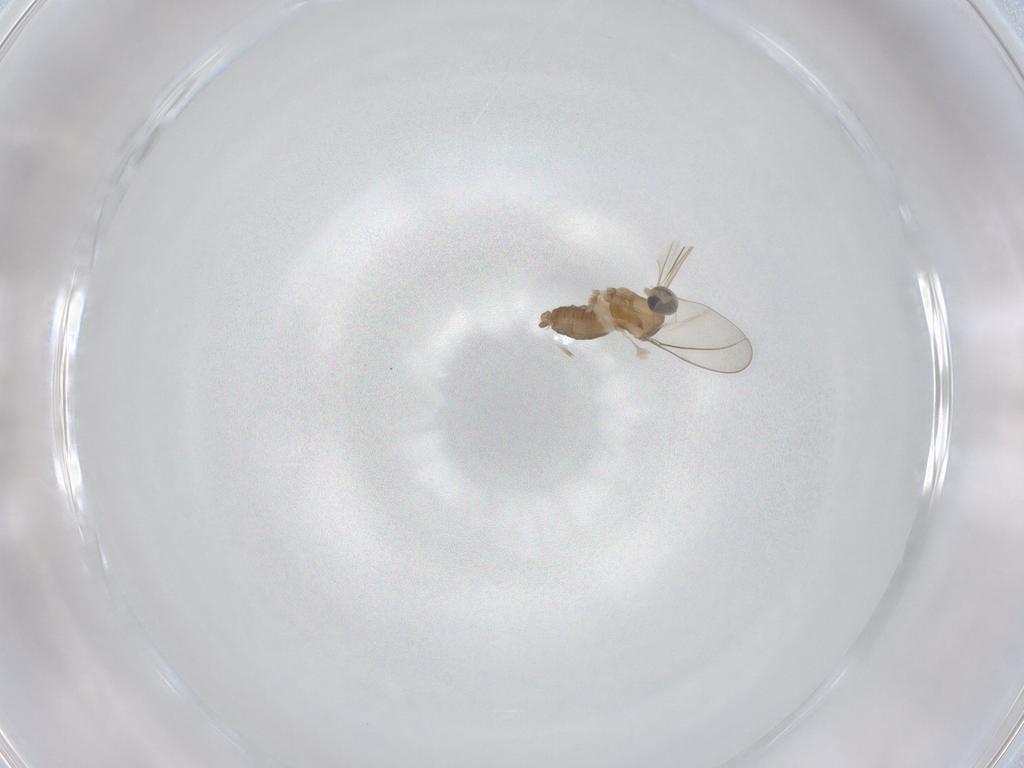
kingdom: Animalia
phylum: Arthropoda
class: Insecta
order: Diptera
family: Cecidomyiidae
